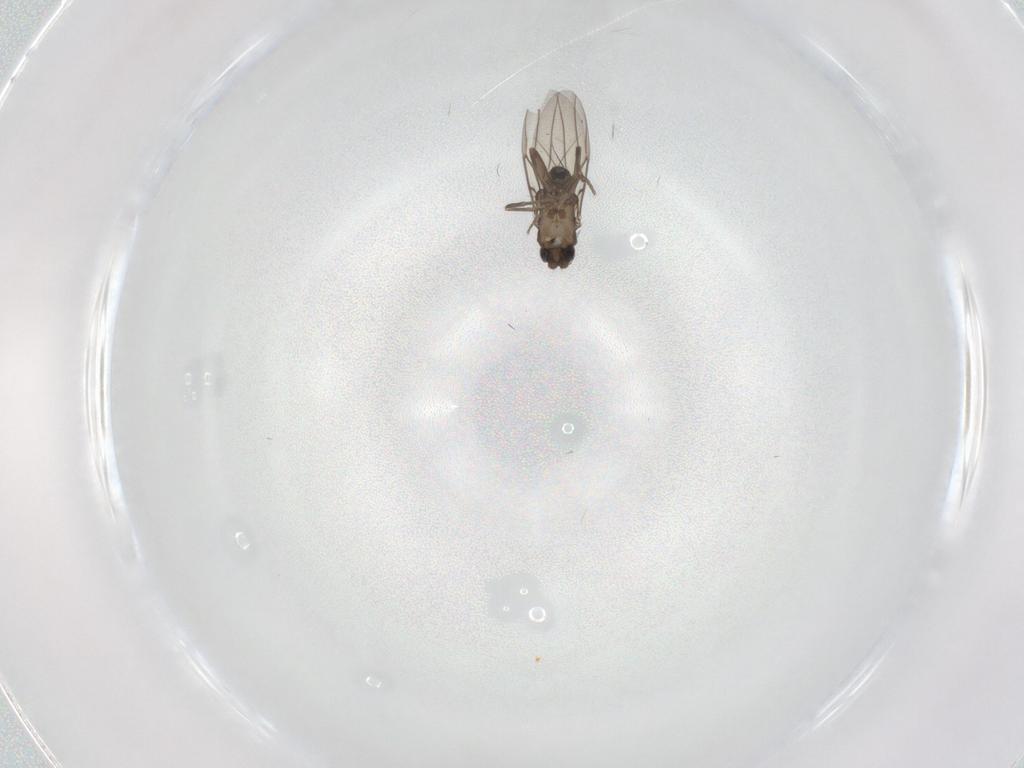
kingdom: Animalia
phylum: Arthropoda
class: Insecta
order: Diptera
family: Phoridae
